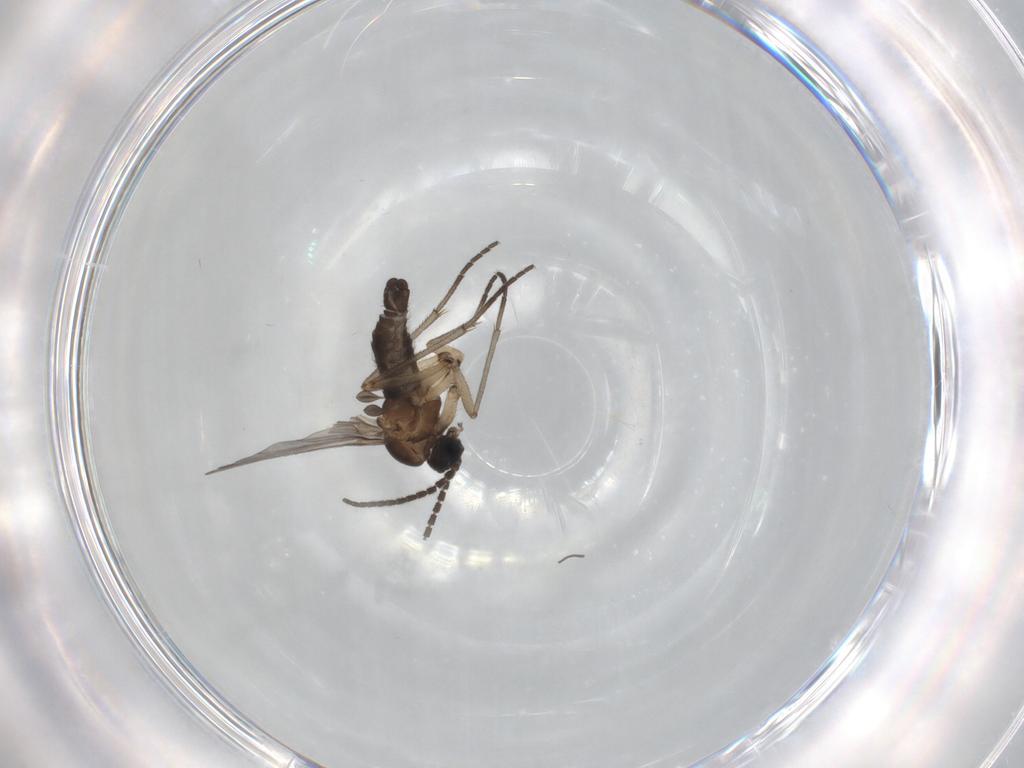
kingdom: Animalia
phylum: Arthropoda
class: Insecta
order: Diptera
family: Sciaridae
